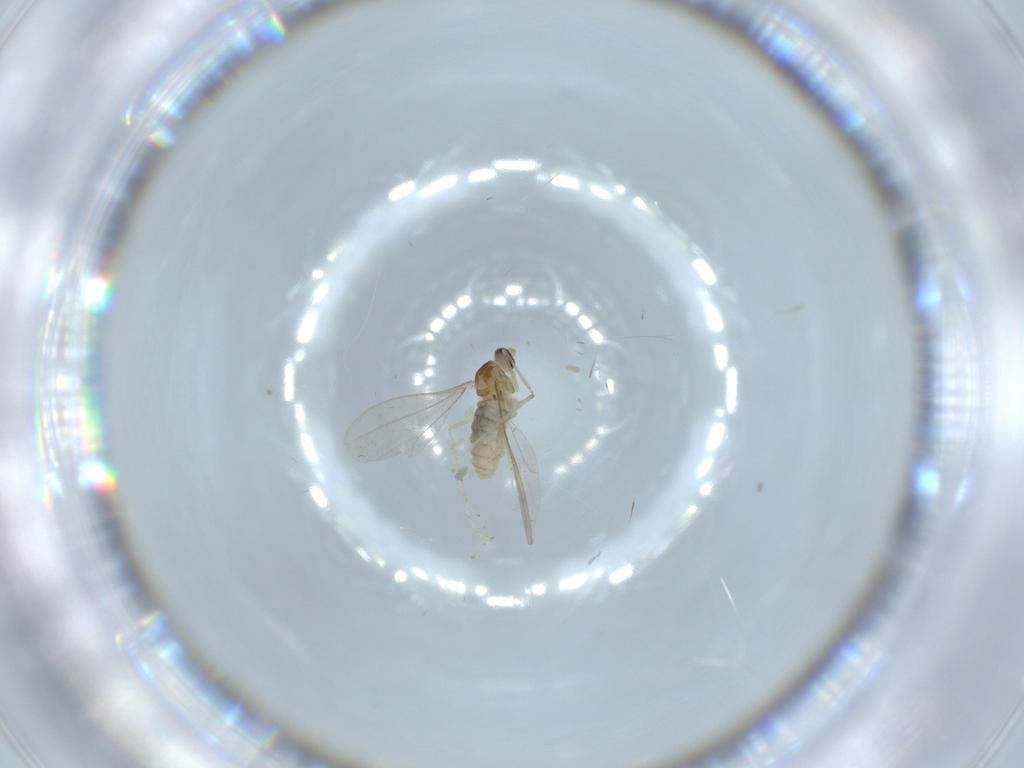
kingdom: Animalia
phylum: Arthropoda
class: Insecta
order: Diptera
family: Cecidomyiidae
